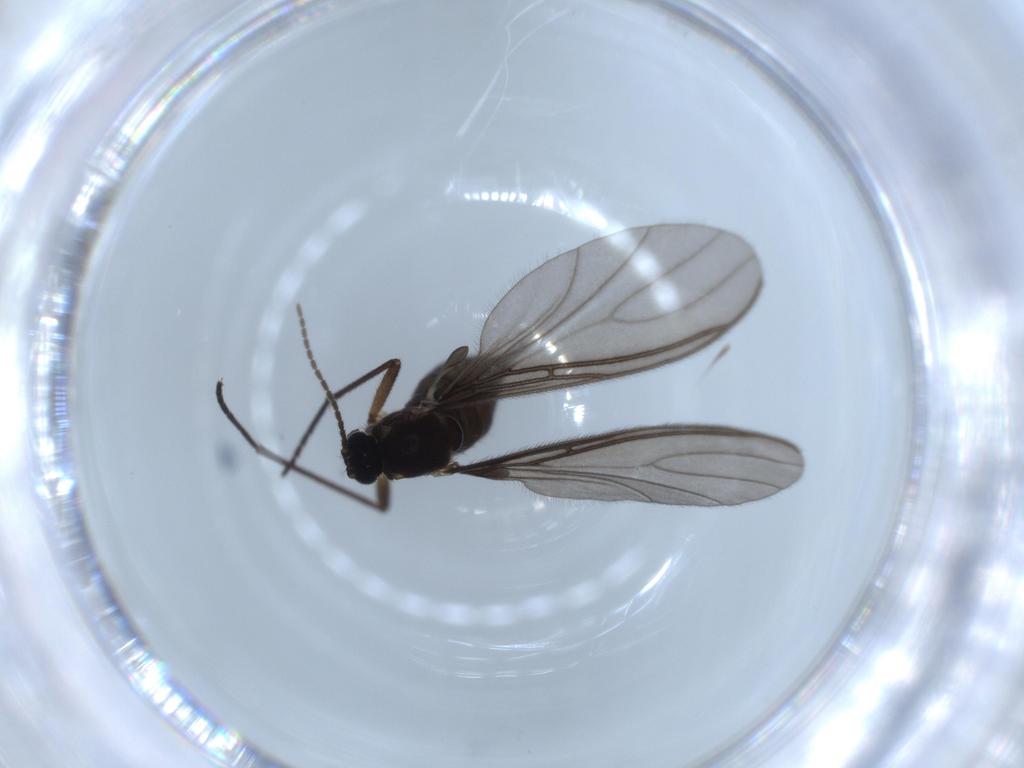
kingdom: Animalia
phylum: Arthropoda
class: Insecta
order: Diptera
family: Sciaridae
